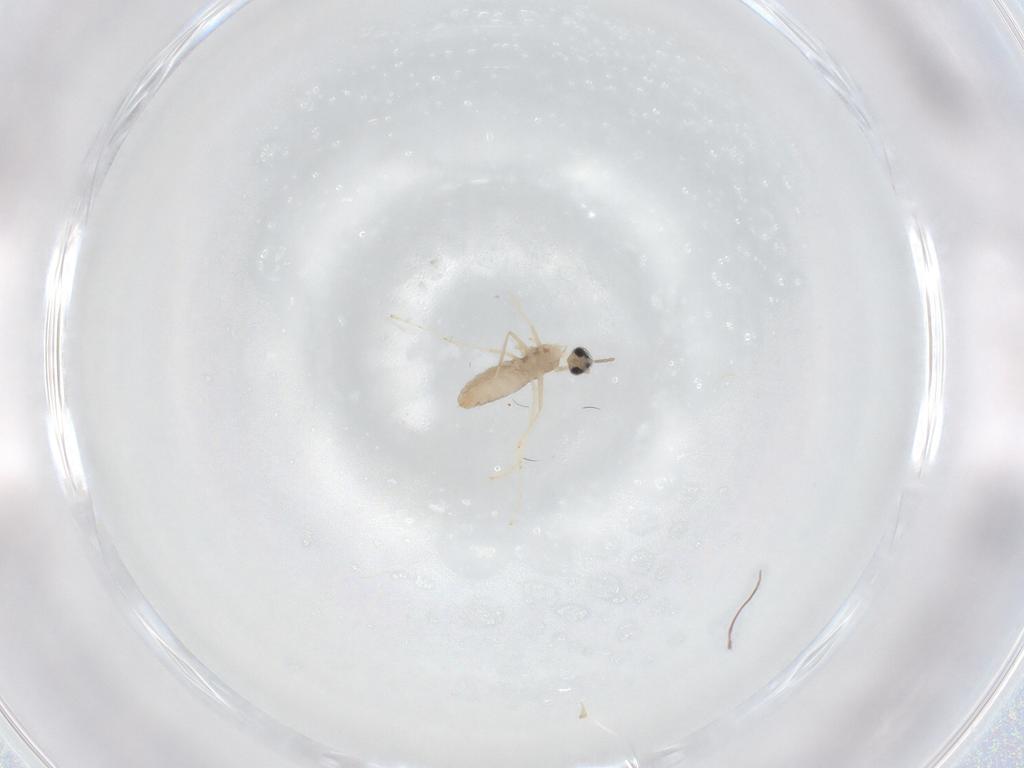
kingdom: Animalia
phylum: Arthropoda
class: Insecta
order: Diptera
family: Cecidomyiidae
